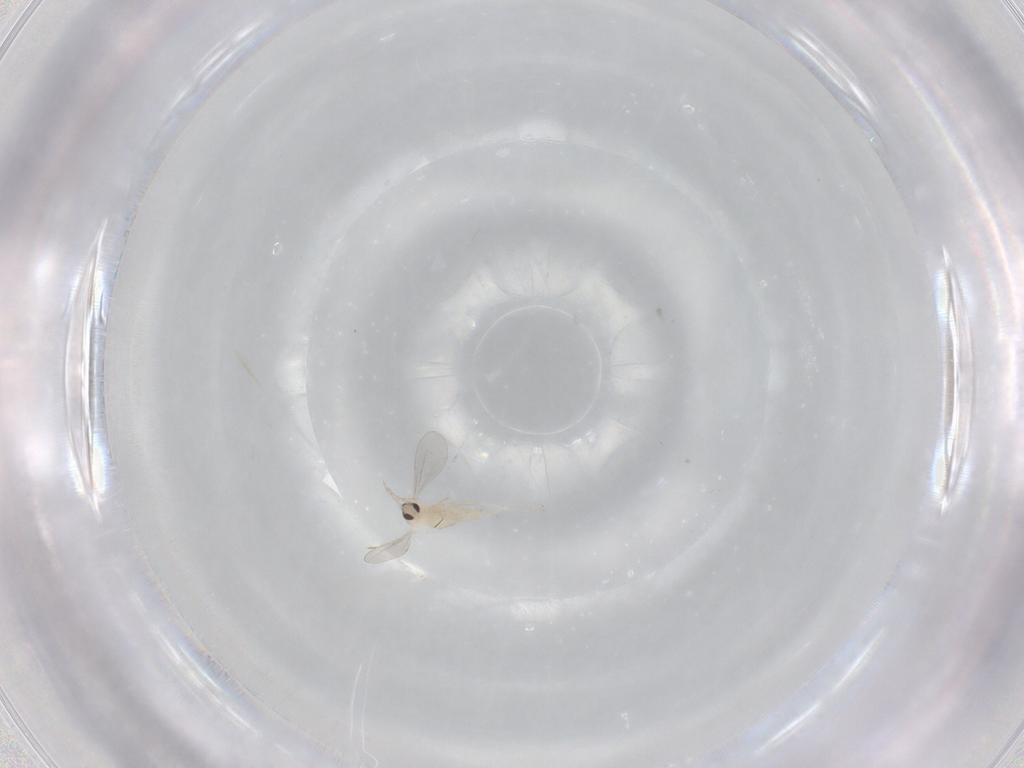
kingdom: Animalia
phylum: Arthropoda
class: Insecta
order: Diptera
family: Cecidomyiidae
